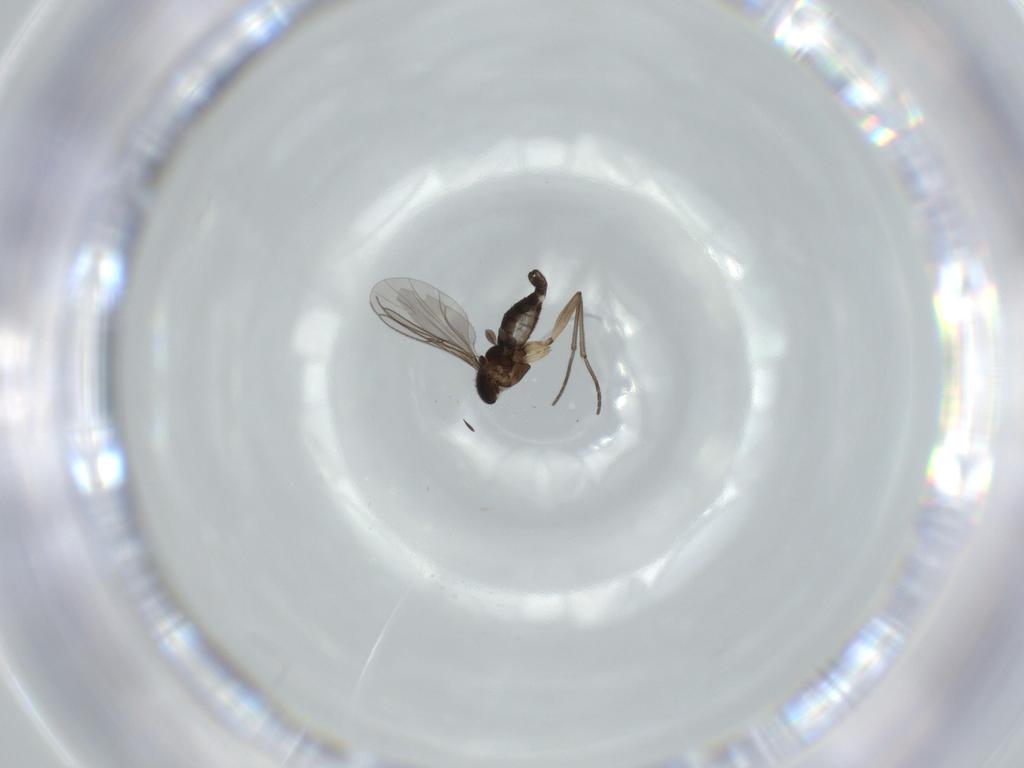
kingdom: Animalia
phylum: Arthropoda
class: Insecta
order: Diptera
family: Sciaridae
